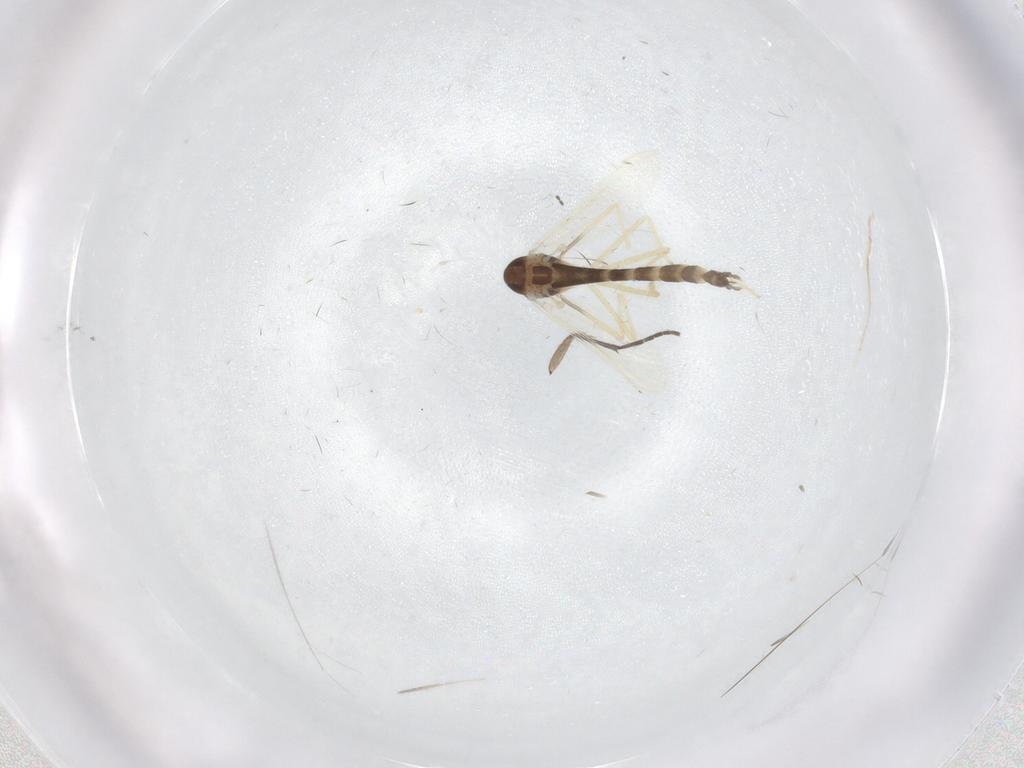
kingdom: Animalia
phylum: Arthropoda
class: Insecta
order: Diptera
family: Chironomidae
